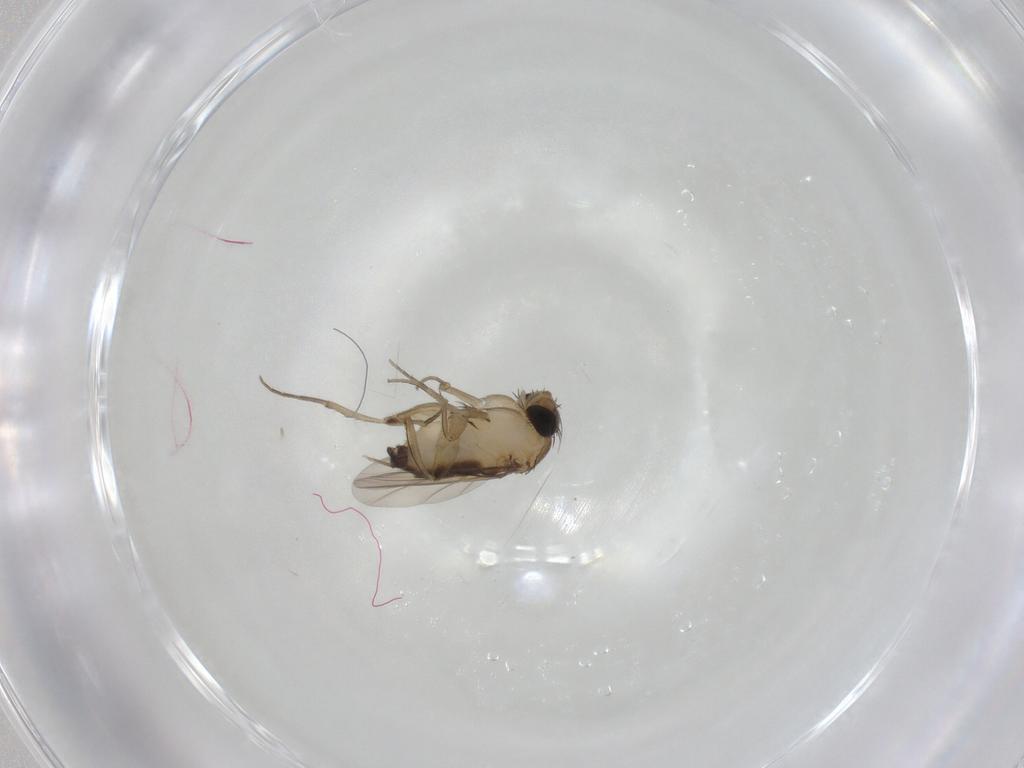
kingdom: Animalia
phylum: Arthropoda
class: Insecta
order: Diptera
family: Phoridae
